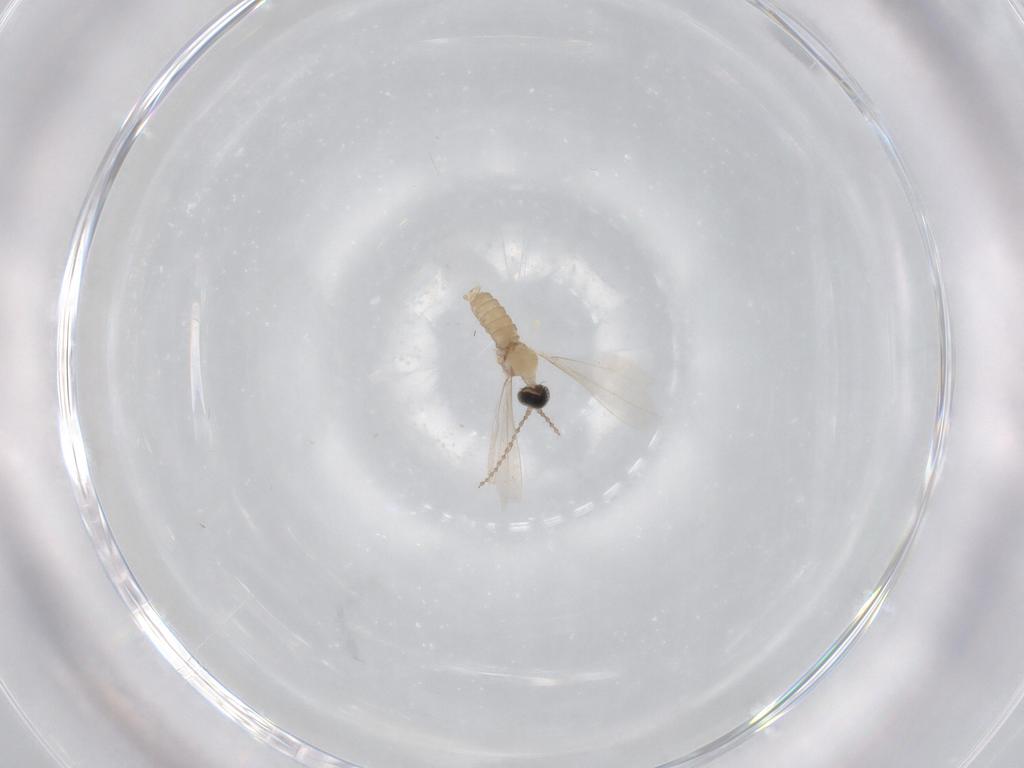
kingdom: Animalia
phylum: Arthropoda
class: Insecta
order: Diptera
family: Cecidomyiidae
